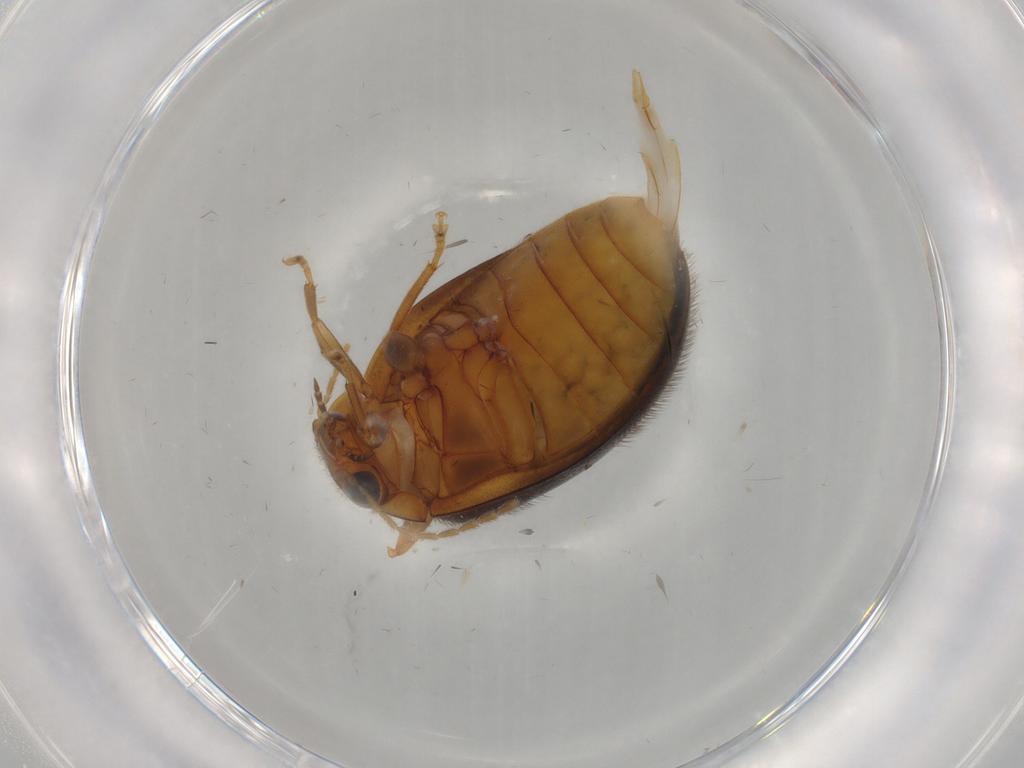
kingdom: Animalia
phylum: Arthropoda
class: Insecta
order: Coleoptera
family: Scirtidae
